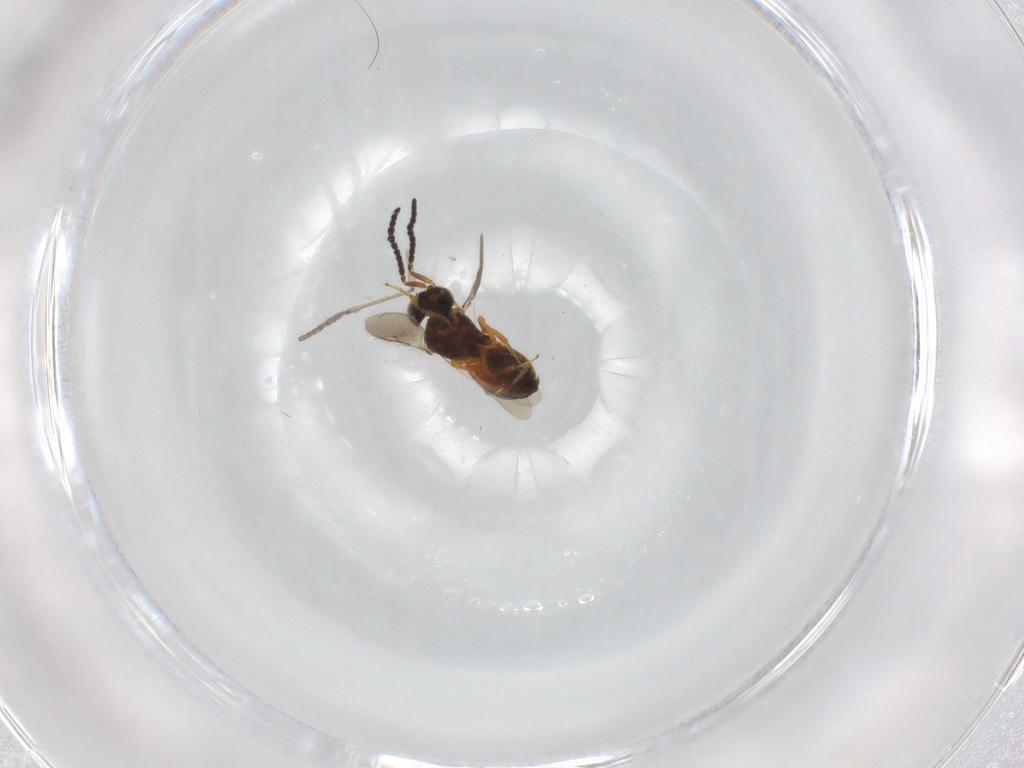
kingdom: Animalia
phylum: Arthropoda
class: Insecta
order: Hymenoptera
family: Scelionidae
